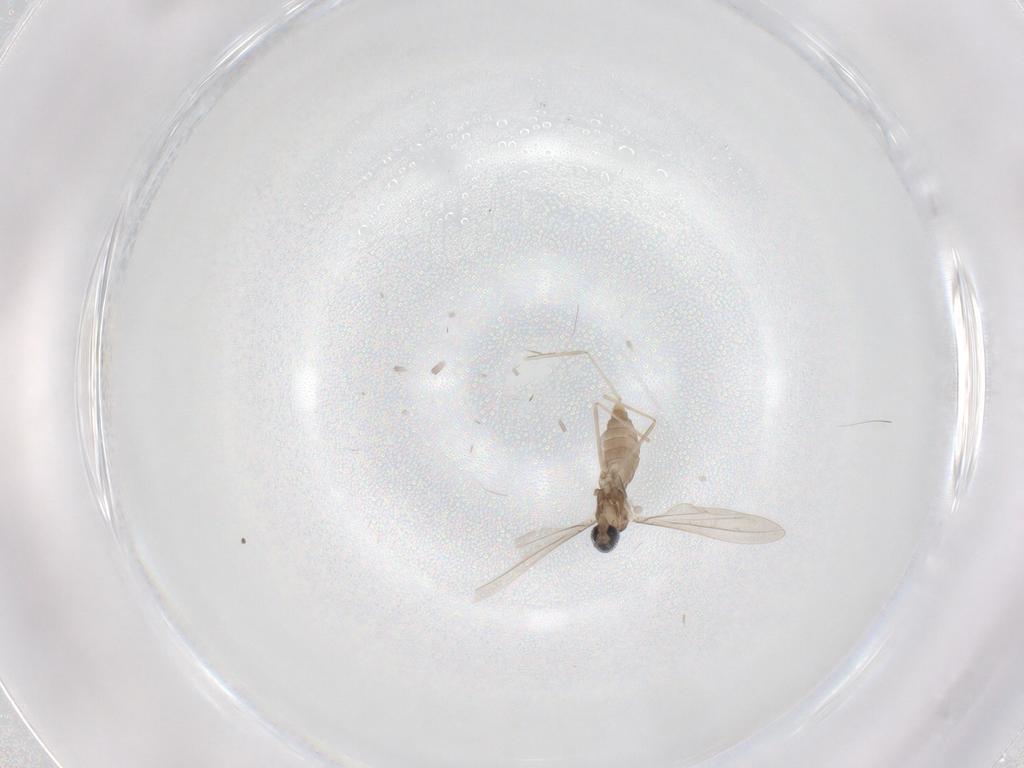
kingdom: Animalia
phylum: Arthropoda
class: Insecta
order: Diptera
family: Cecidomyiidae
